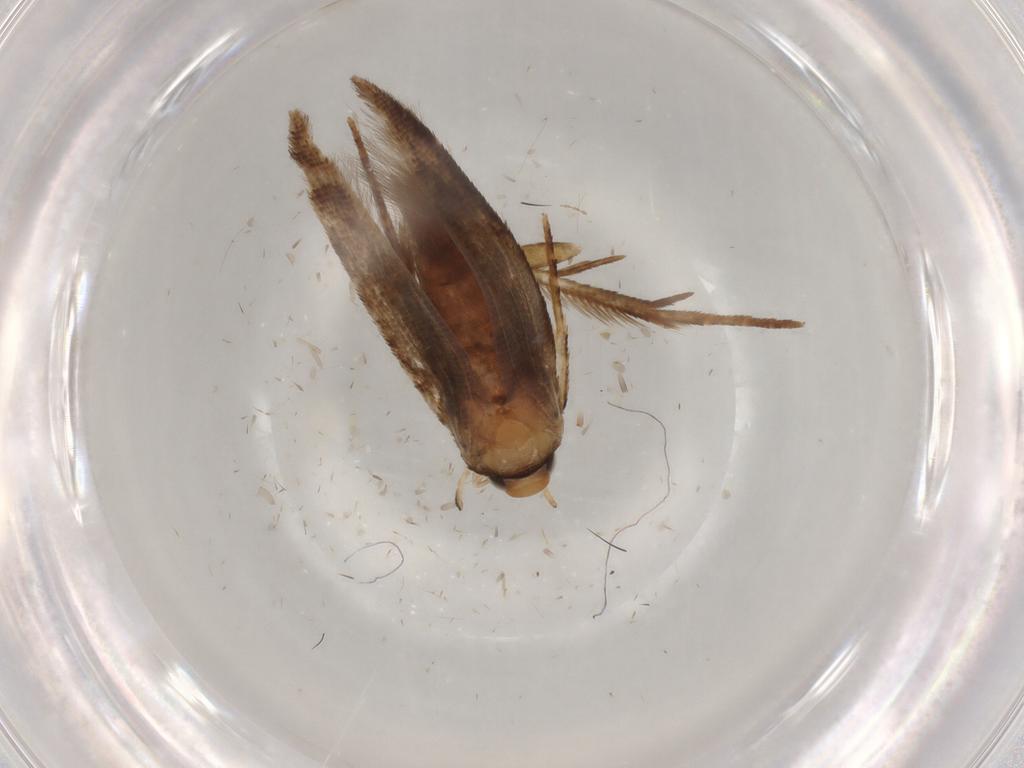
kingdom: Animalia
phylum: Arthropoda
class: Insecta
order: Lepidoptera
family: Cosmopterigidae
